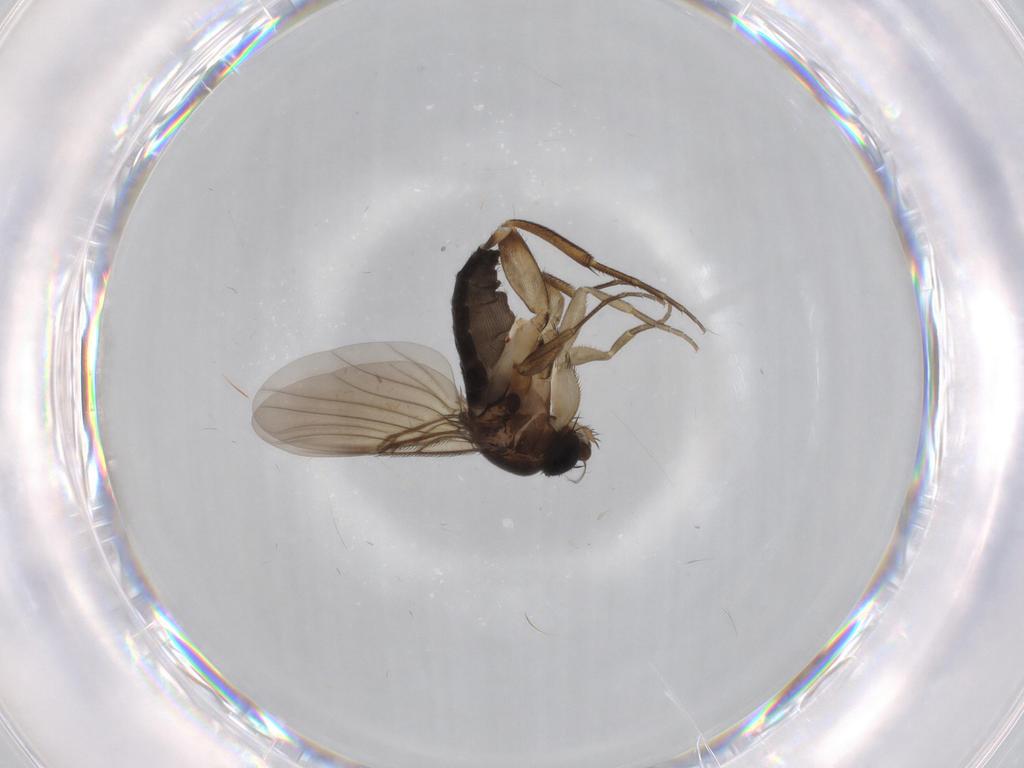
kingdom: Animalia
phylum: Arthropoda
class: Insecta
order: Diptera
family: Phoridae
